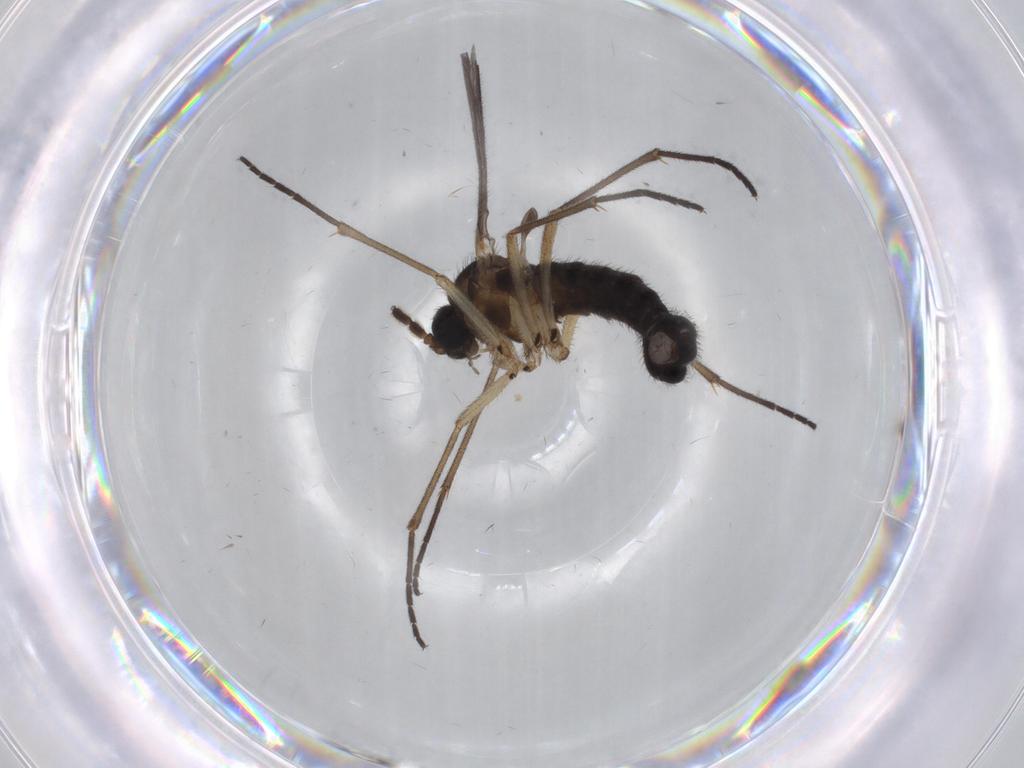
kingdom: Animalia
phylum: Arthropoda
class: Insecta
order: Diptera
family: Sciaridae
